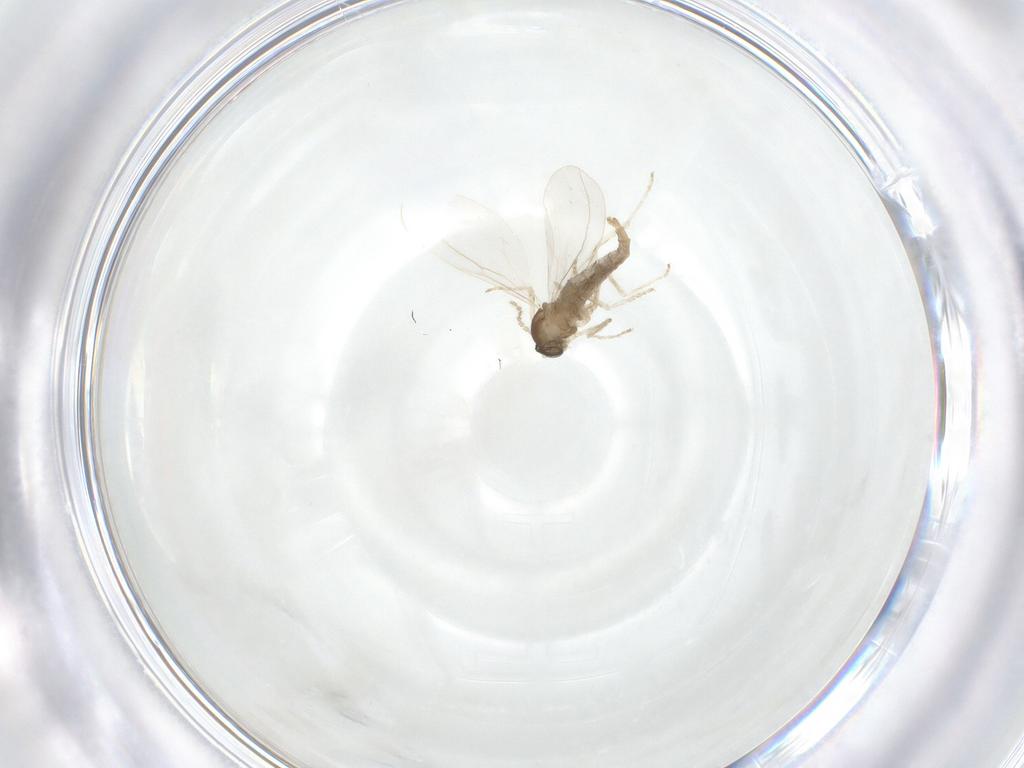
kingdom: Animalia
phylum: Arthropoda
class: Insecta
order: Diptera
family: Cecidomyiidae
